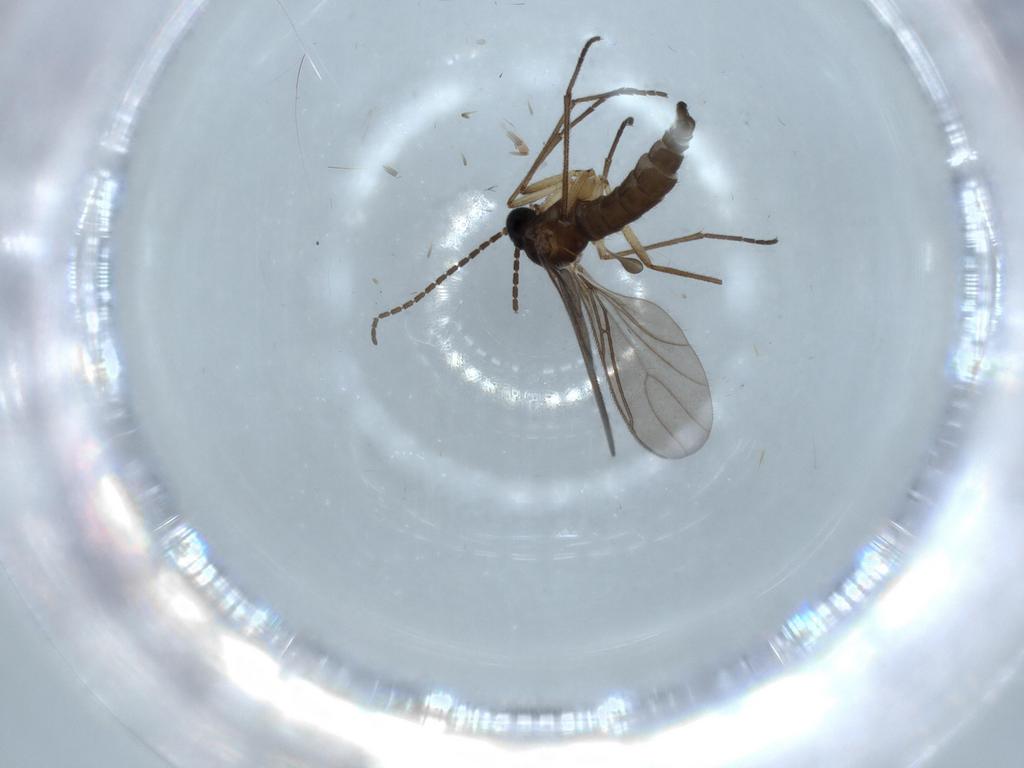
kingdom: Animalia
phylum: Arthropoda
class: Insecta
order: Diptera
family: Sciaridae
